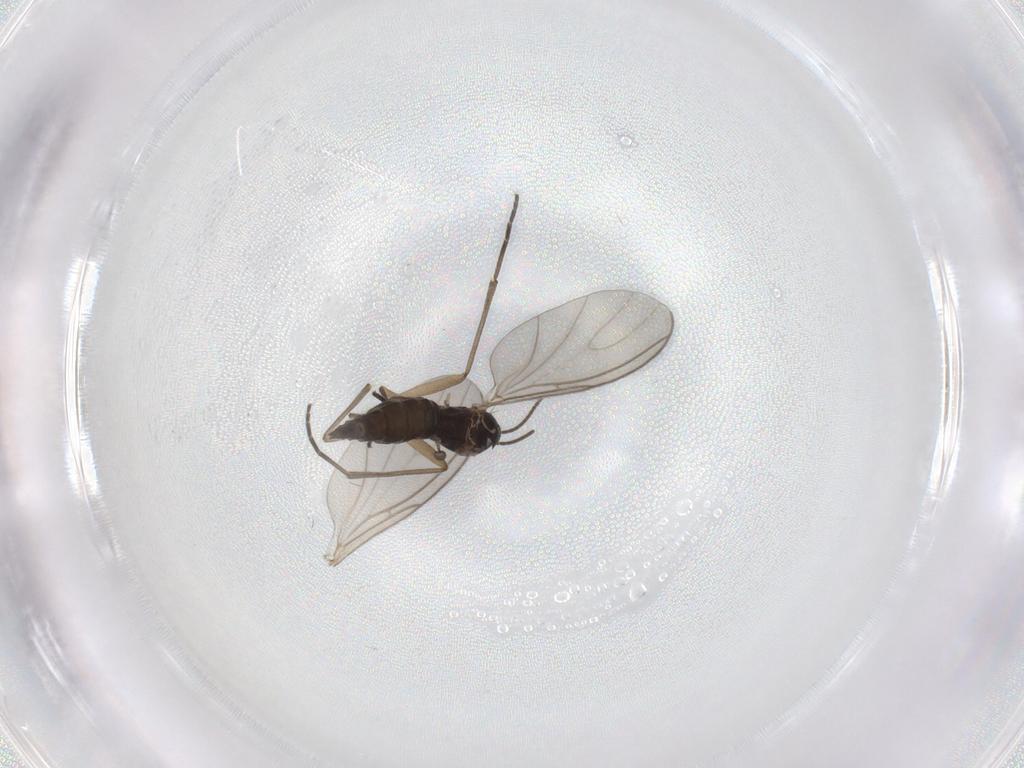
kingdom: Animalia
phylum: Arthropoda
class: Insecta
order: Diptera
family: Sciaridae
